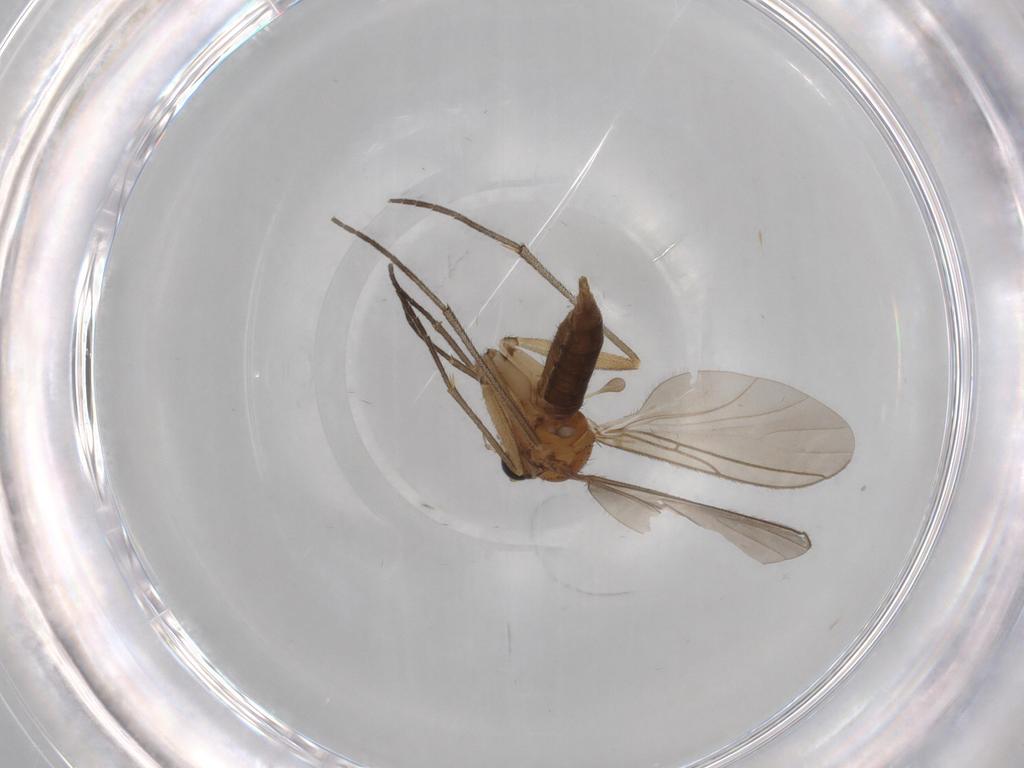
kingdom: Animalia
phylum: Arthropoda
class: Insecta
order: Diptera
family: Sciaridae
